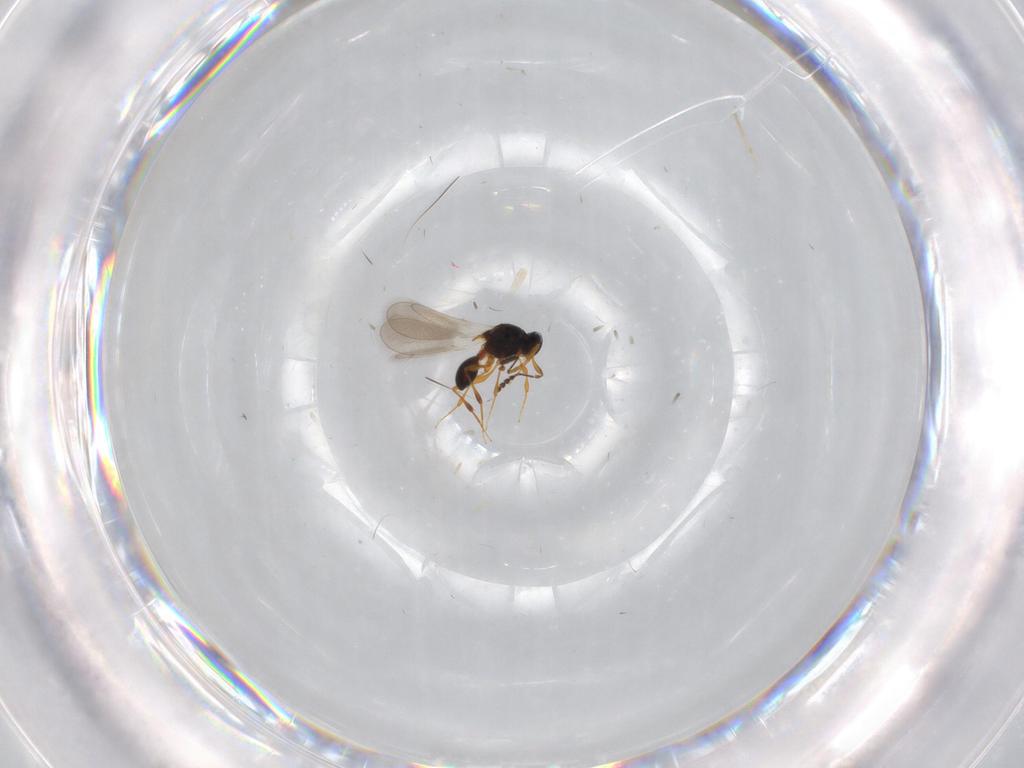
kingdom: Animalia
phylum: Arthropoda
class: Insecta
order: Hymenoptera
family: Platygastridae
